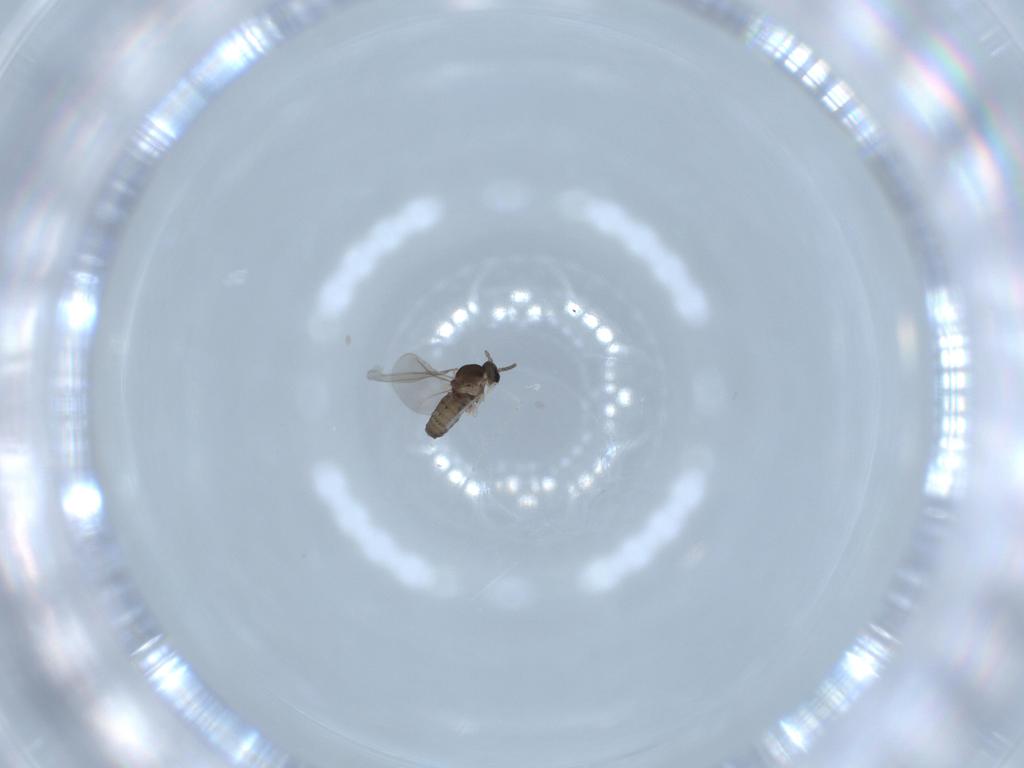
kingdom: Animalia
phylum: Arthropoda
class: Insecta
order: Diptera
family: Cecidomyiidae
